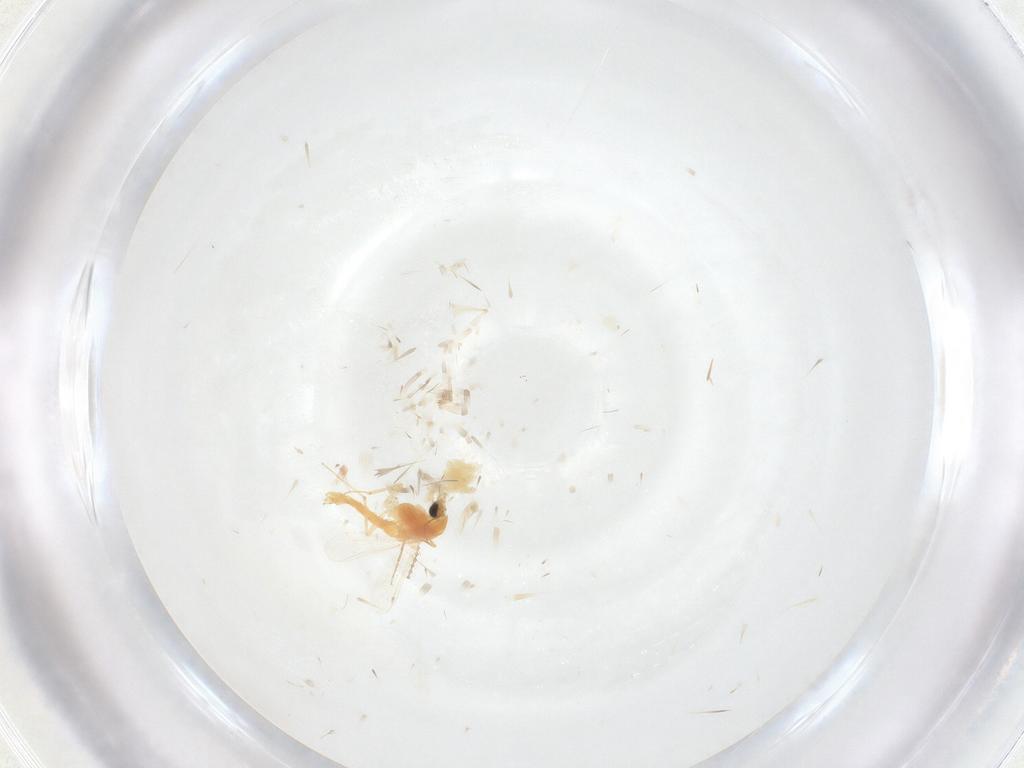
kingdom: Animalia
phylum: Arthropoda
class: Insecta
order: Diptera
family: Chironomidae
